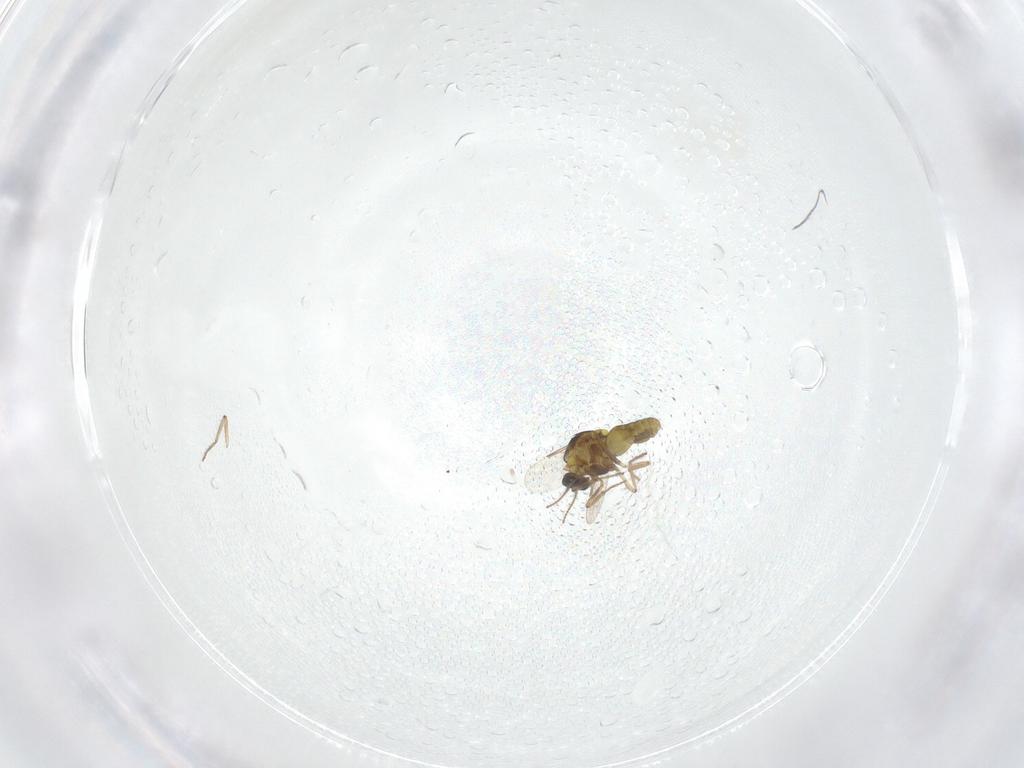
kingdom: Animalia
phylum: Arthropoda
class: Insecta
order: Diptera
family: Ceratopogonidae
